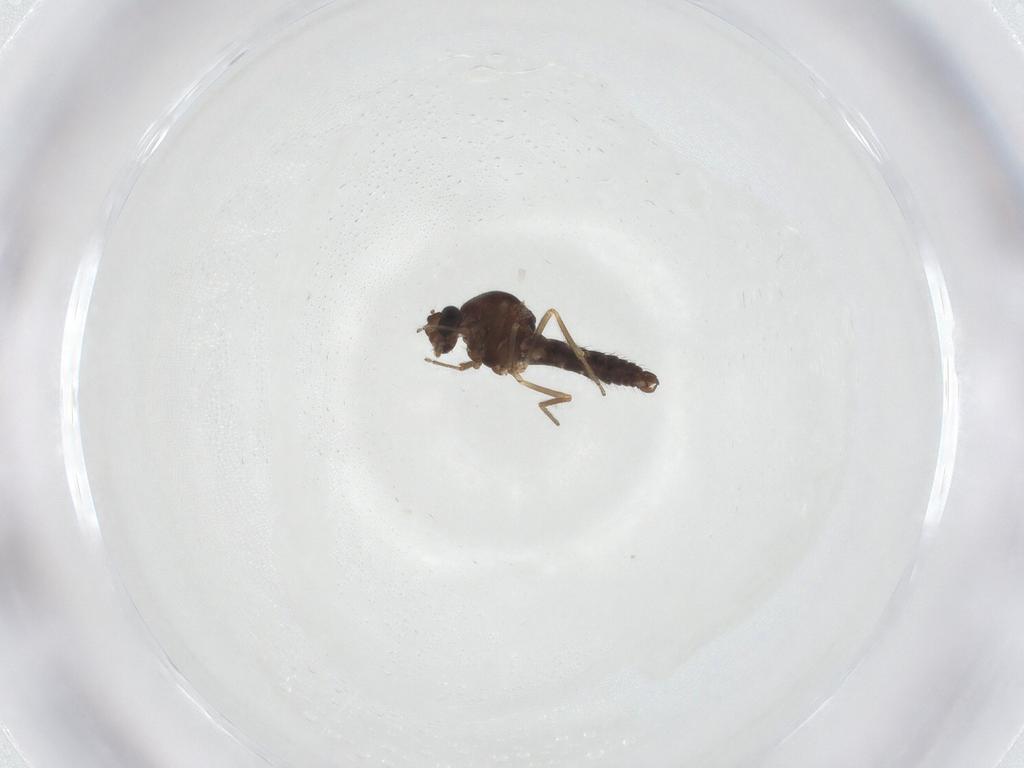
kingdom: Animalia
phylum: Arthropoda
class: Insecta
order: Diptera
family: Ceratopogonidae
